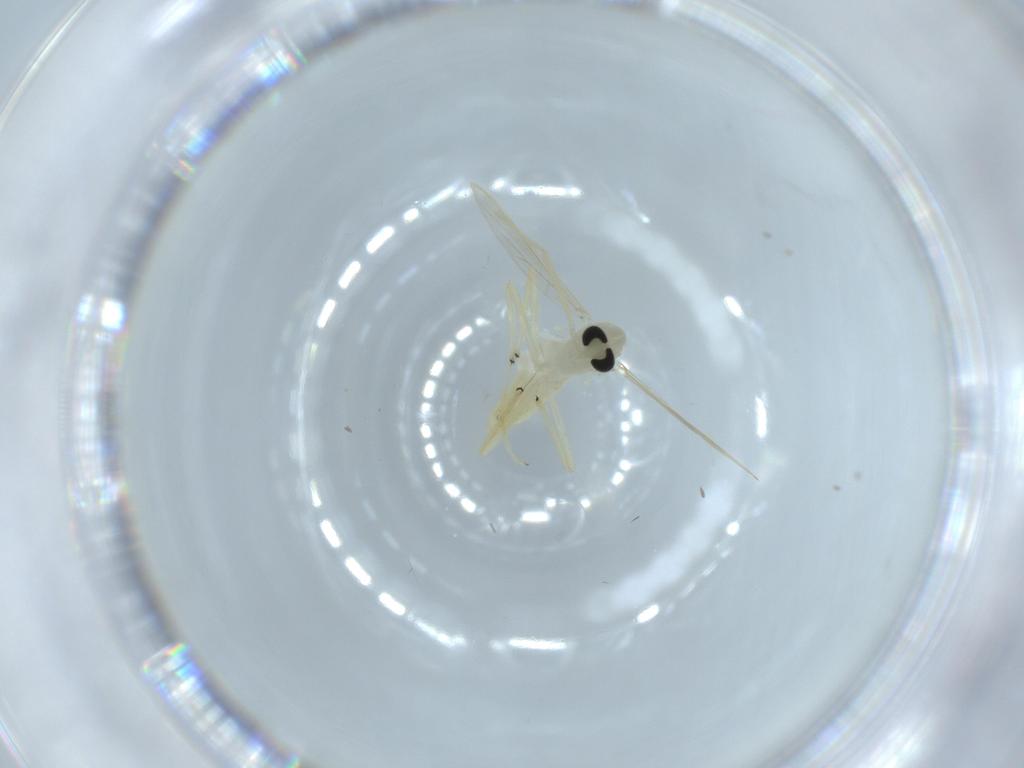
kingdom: Animalia
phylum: Arthropoda
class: Insecta
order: Diptera
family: Chironomidae
